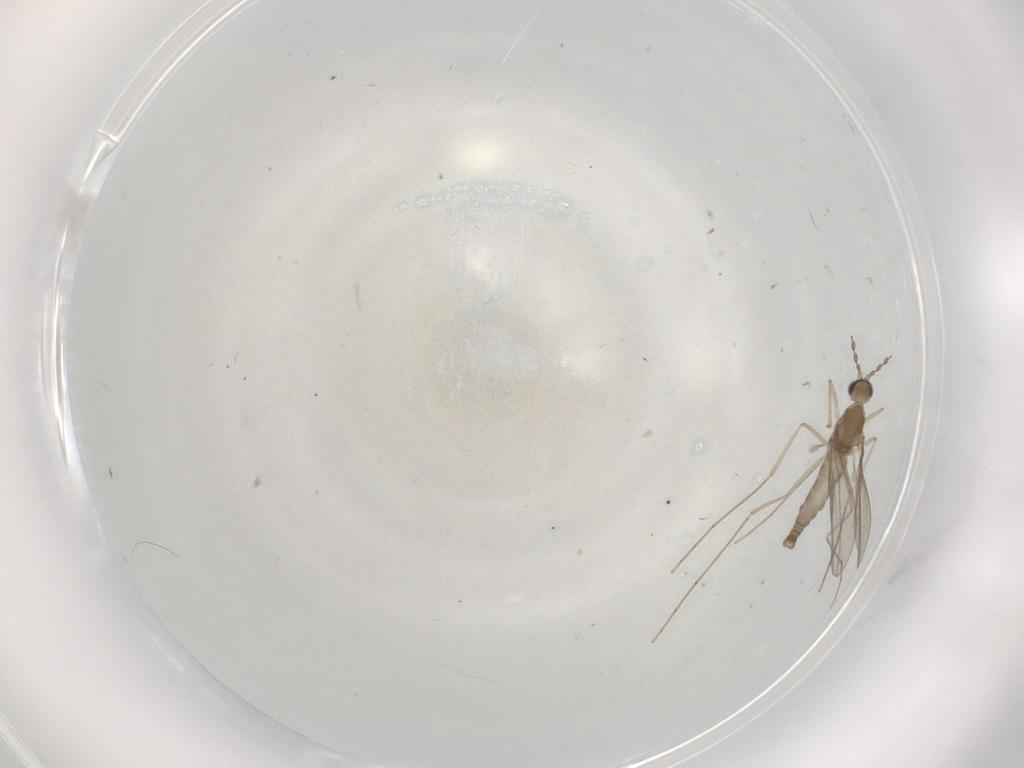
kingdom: Animalia
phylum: Arthropoda
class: Insecta
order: Diptera
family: Cecidomyiidae
